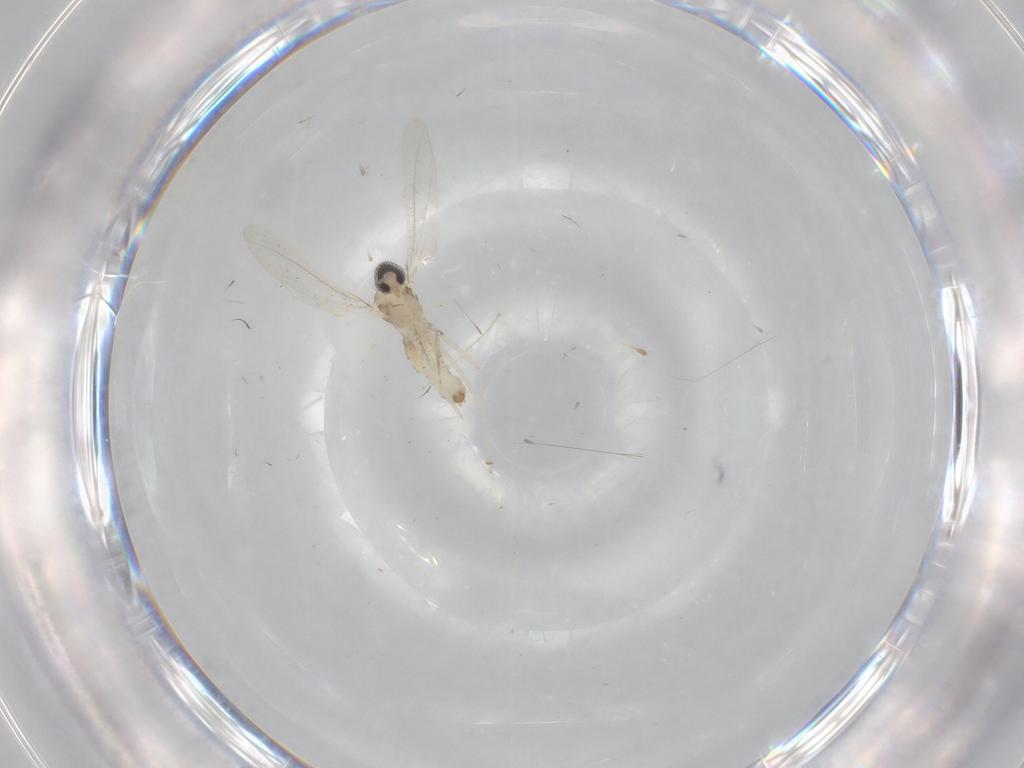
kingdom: Animalia
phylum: Arthropoda
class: Insecta
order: Diptera
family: Cecidomyiidae
